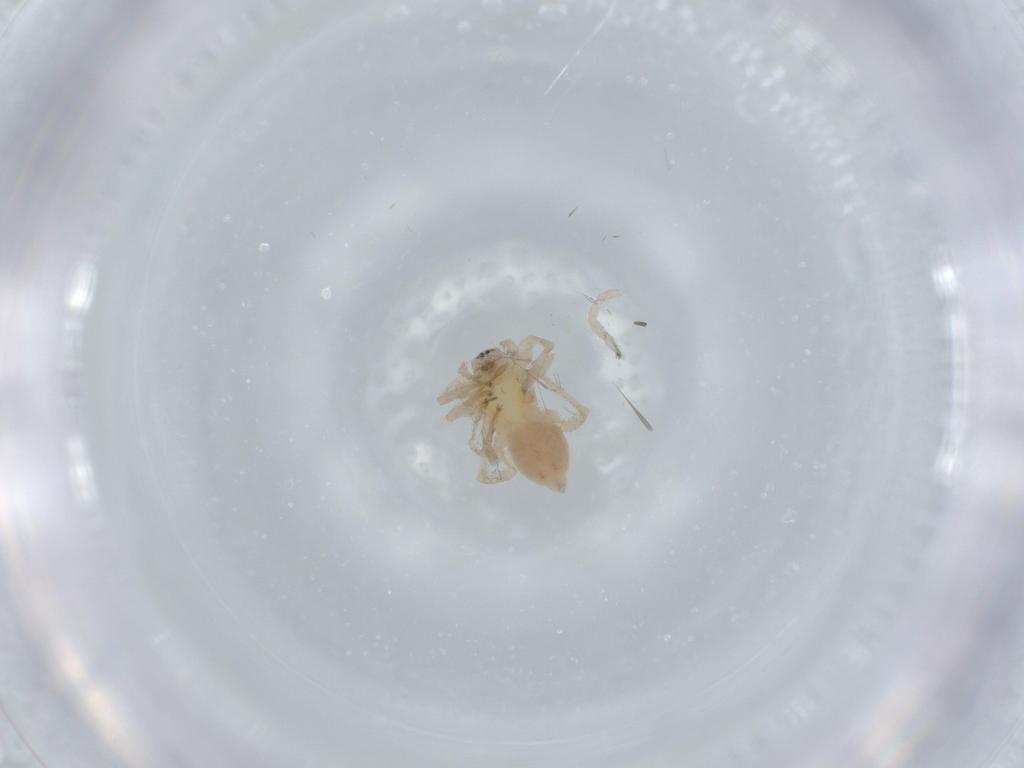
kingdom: Animalia
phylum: Arthropoda
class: Arachnida
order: Araneae
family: Anyphaenidae
